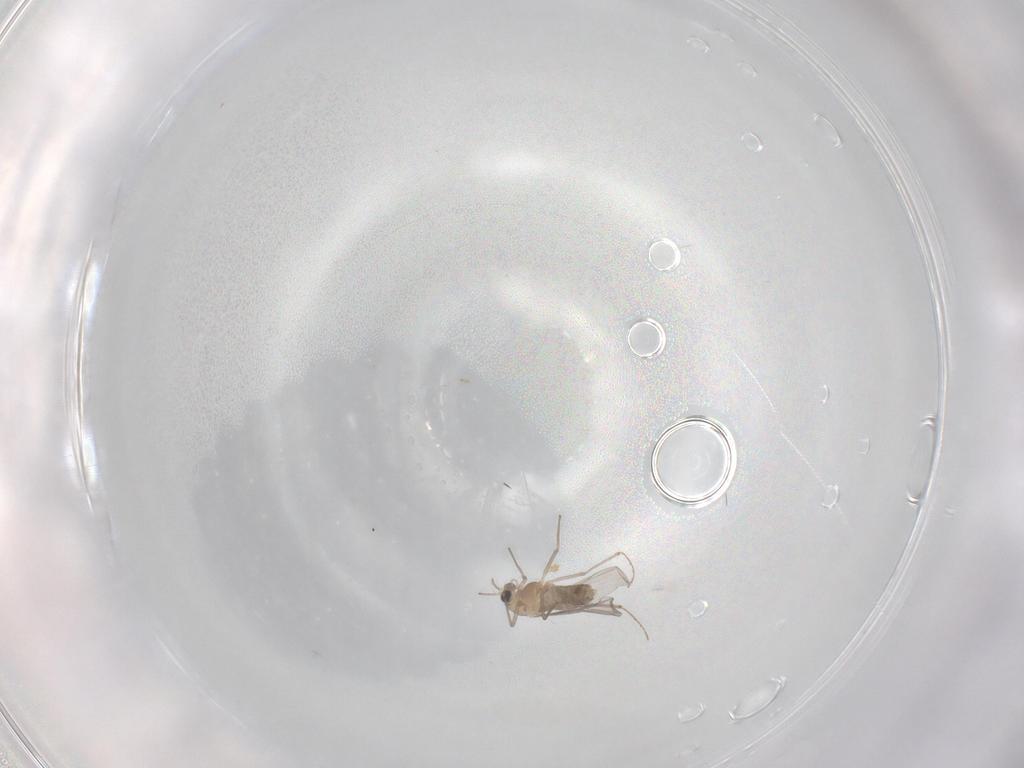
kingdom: Animalia
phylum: Arthropoda
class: Insecta
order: Diptera
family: Chironomidae
